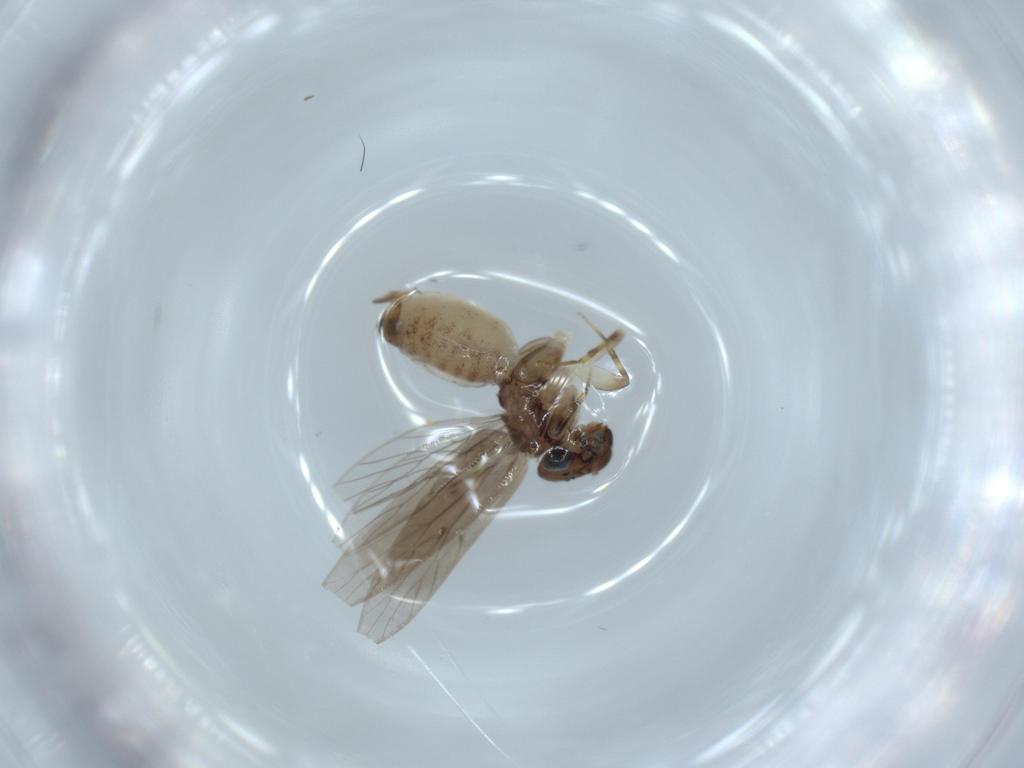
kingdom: Animalia
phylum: Arthropoda
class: Insecta
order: Psocodea
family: Lepidopsocidae
